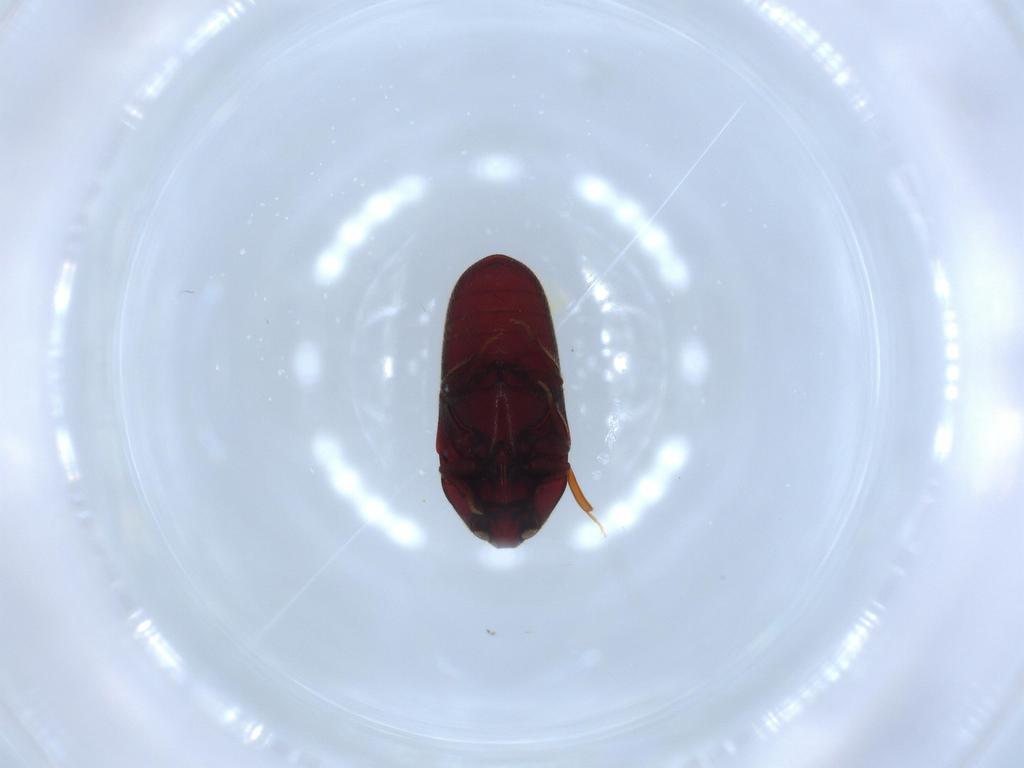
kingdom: Animalia
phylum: Arthropoda
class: Insecta
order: Coleoptera
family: Throscidae
